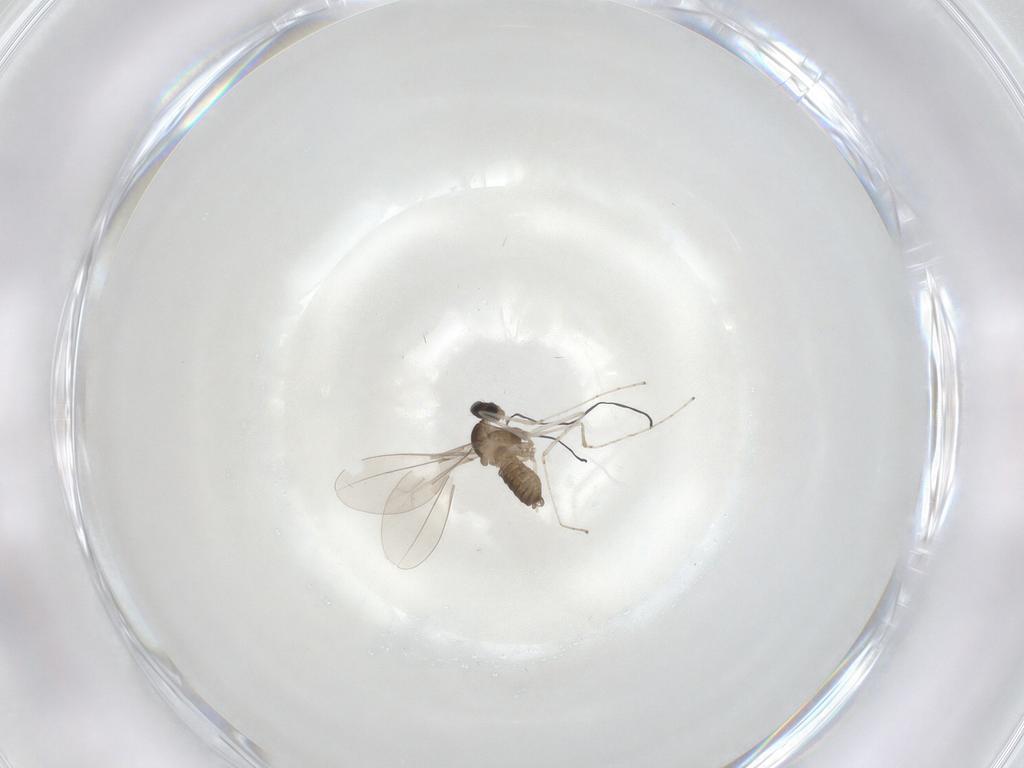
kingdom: Animalia
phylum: Arthropoda
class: Insecta
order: Diptera
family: Cecidomyiidae
